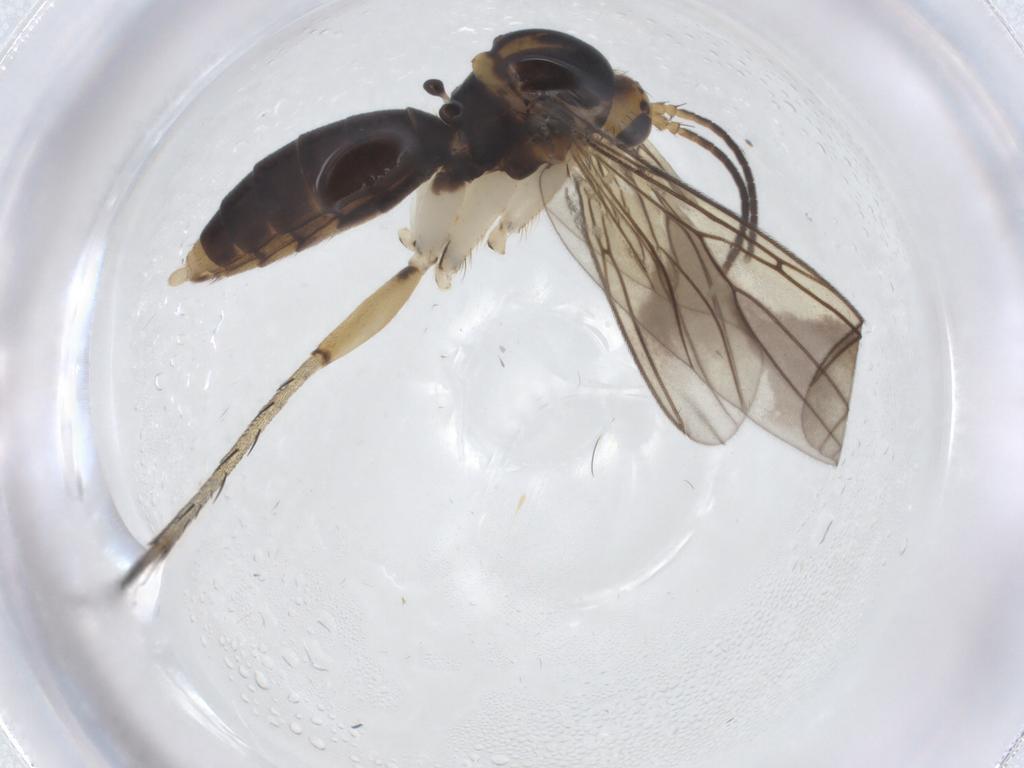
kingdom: Animalia
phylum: Arthropoda
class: Insecta
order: Diptera
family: Mycetophilidae
